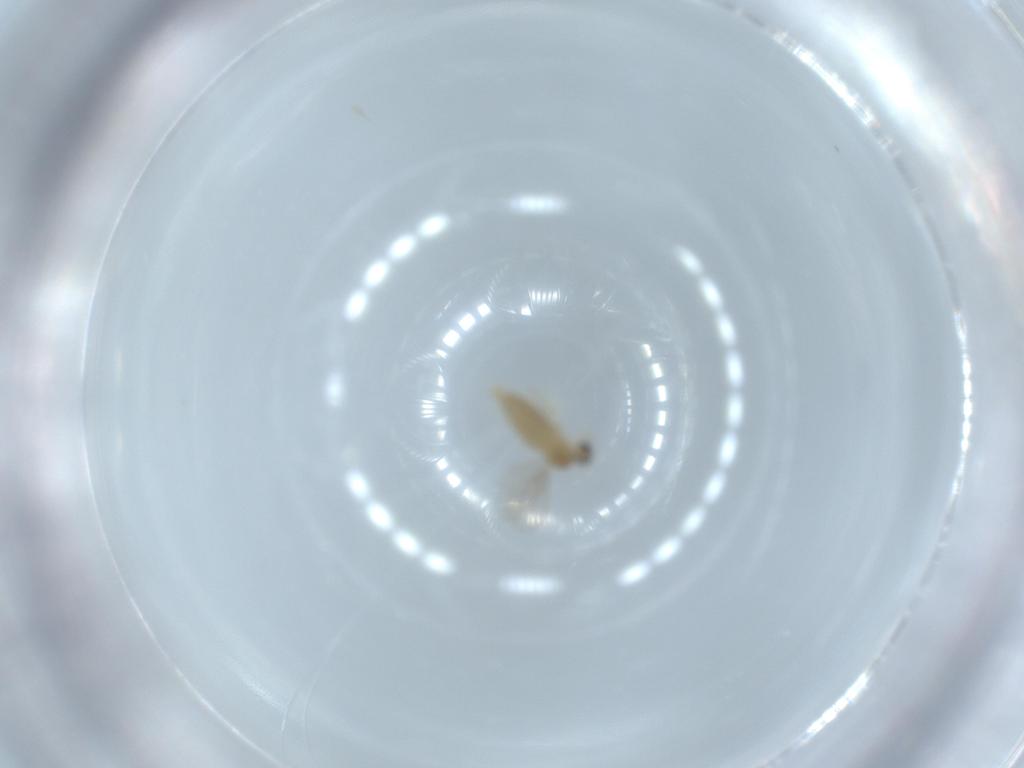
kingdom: Animalia
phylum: Arthropoda
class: Insecta
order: Diptera
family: Cecidomyiidae
